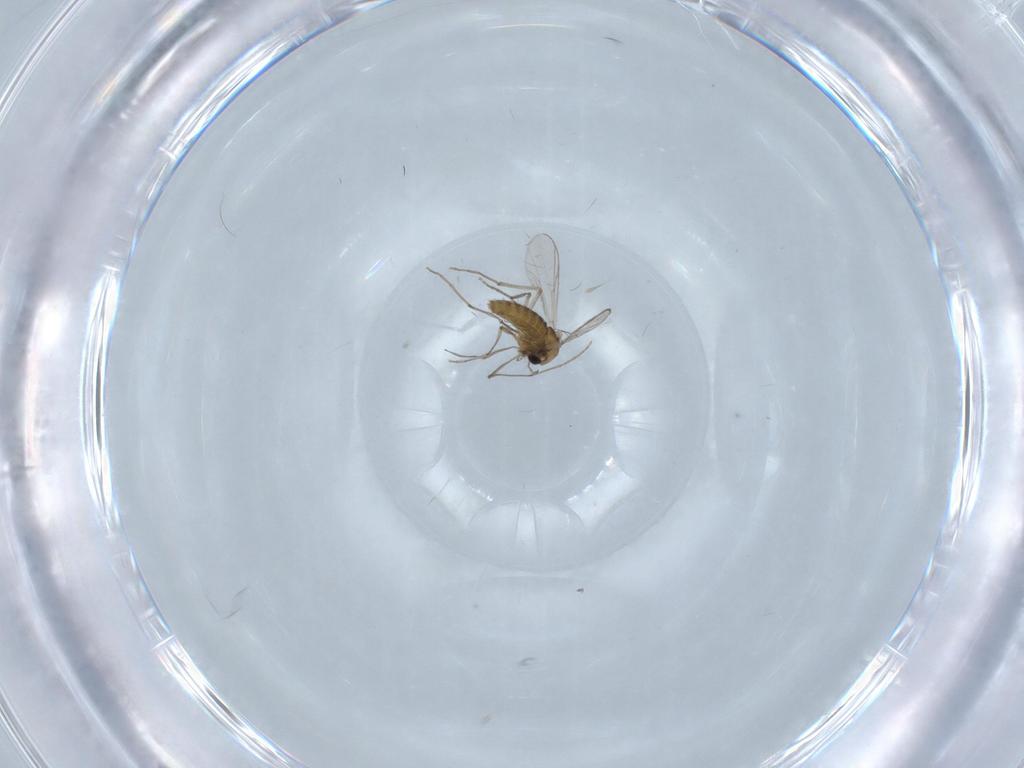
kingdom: Animalia
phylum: Arthropoda
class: Insecta
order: Diptera
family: Chironomidae
